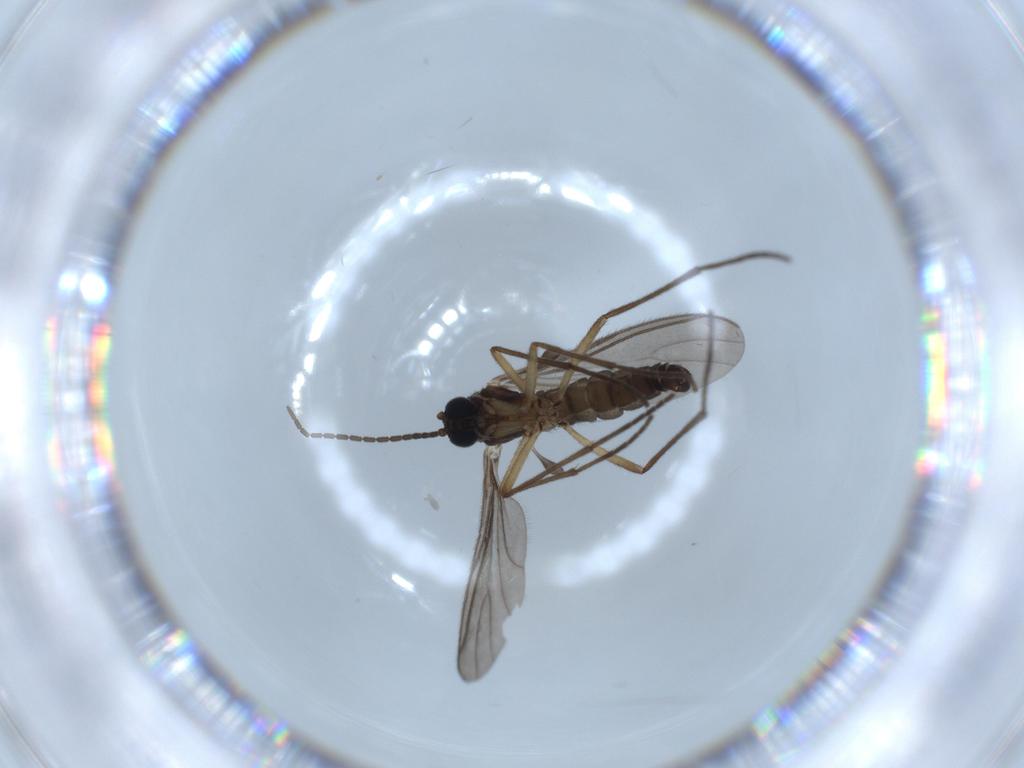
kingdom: Animalia
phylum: Arthropoda
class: Insecta
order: Diptera
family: Sciaridae
